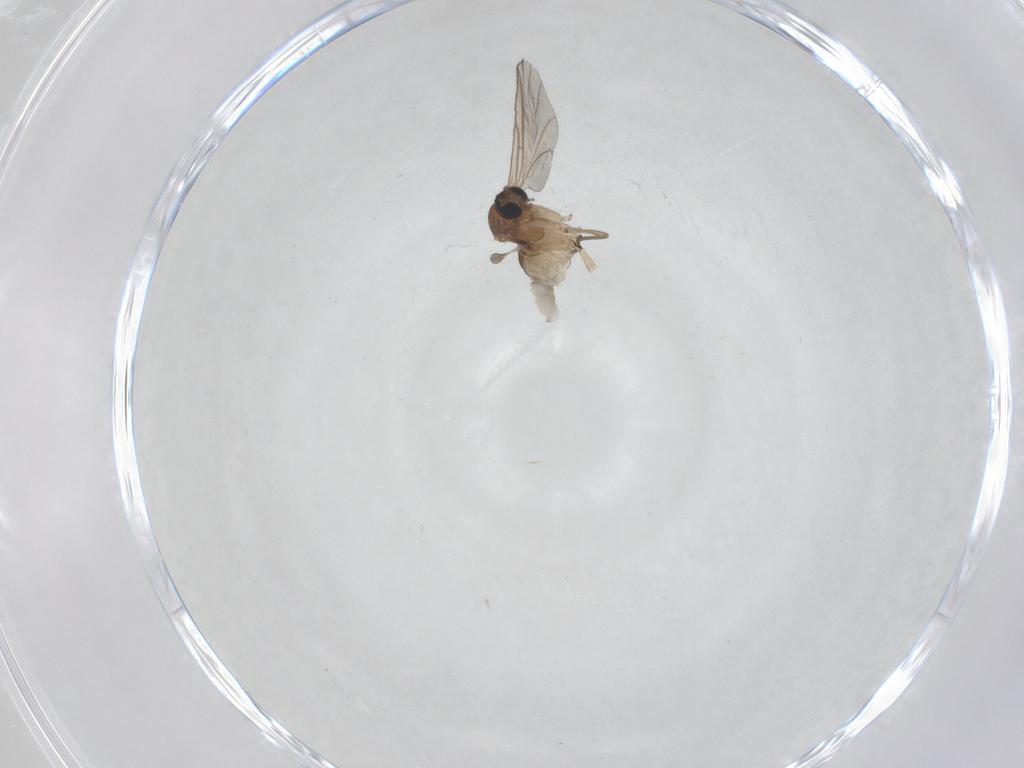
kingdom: Animalia
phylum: Arthropoda
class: Insecta
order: Diptera
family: Sciaridae
